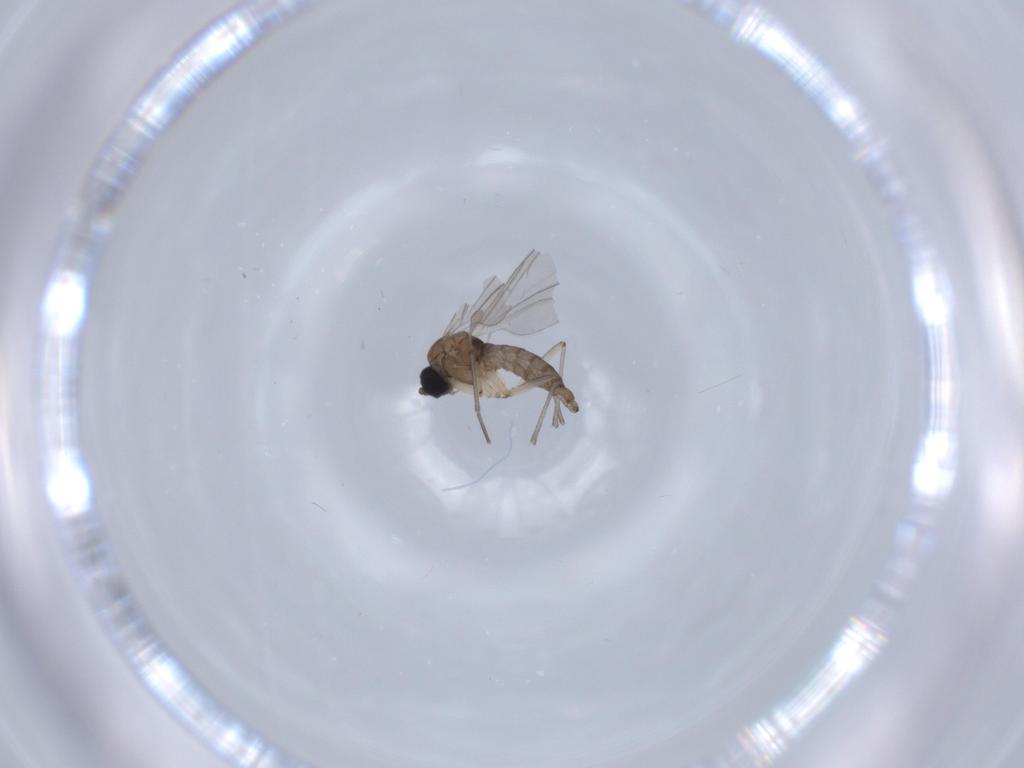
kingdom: Animalia
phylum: Arthropoda
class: Insecta
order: Diptera
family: Sciaridae
